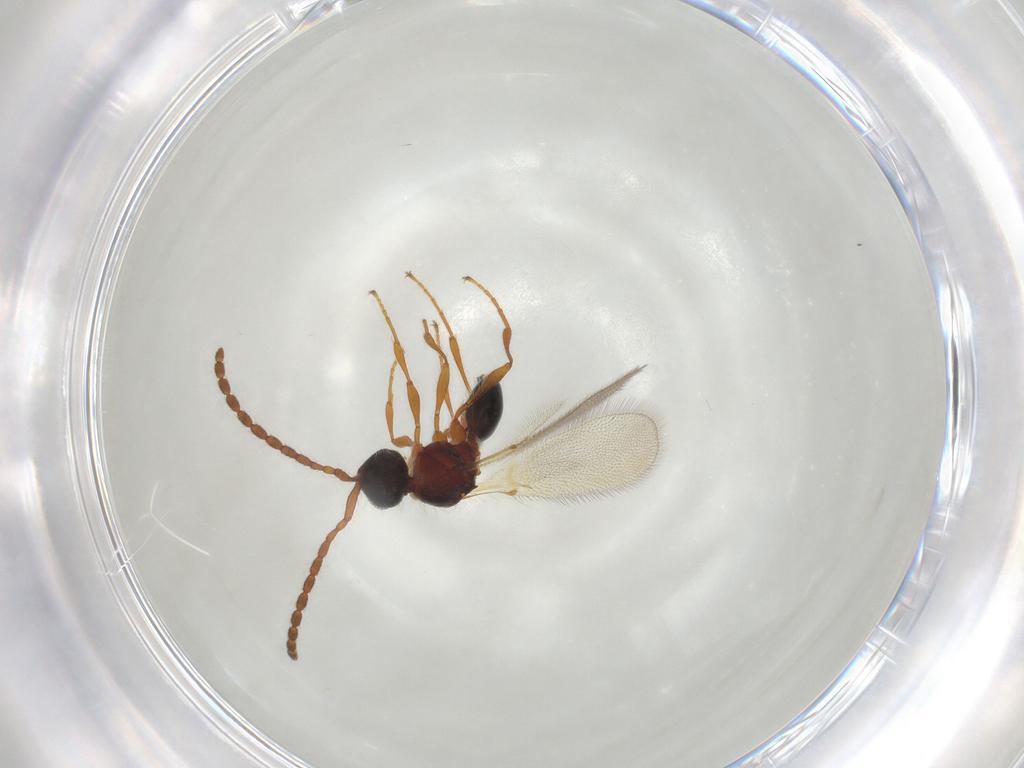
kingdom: Animalia
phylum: Arthropoda
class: Insecta
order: Hymenoptera
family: Diapriidae
